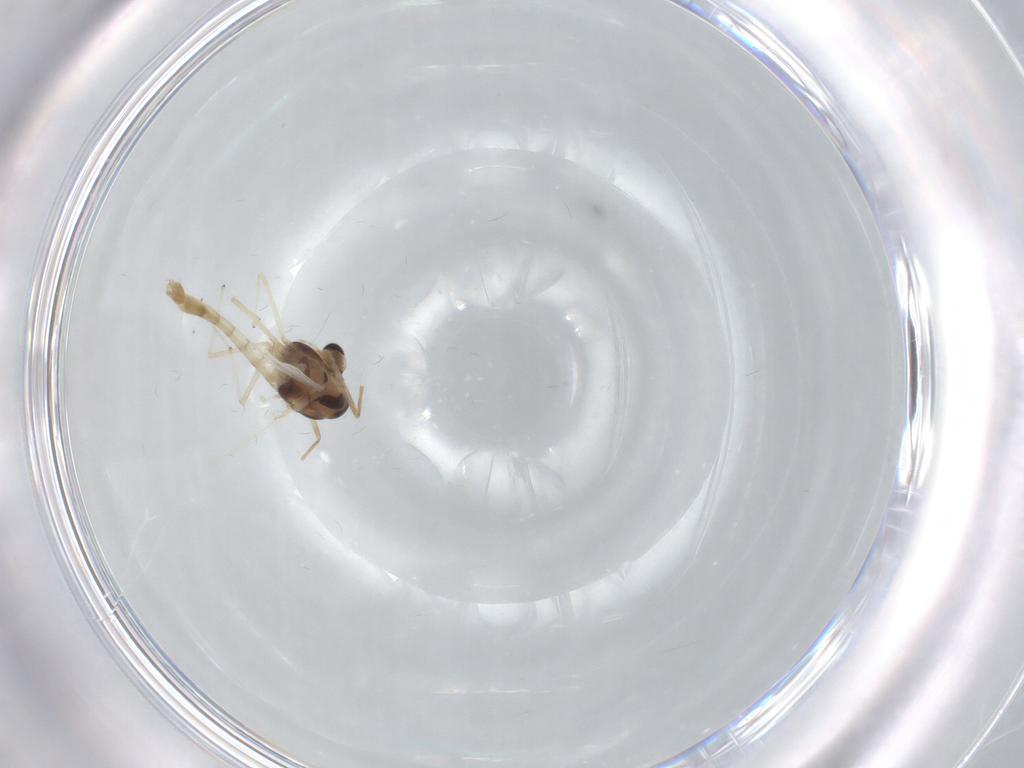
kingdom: Animalia
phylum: Arthropoda
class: Insecta
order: Diptera
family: Chironomidae
